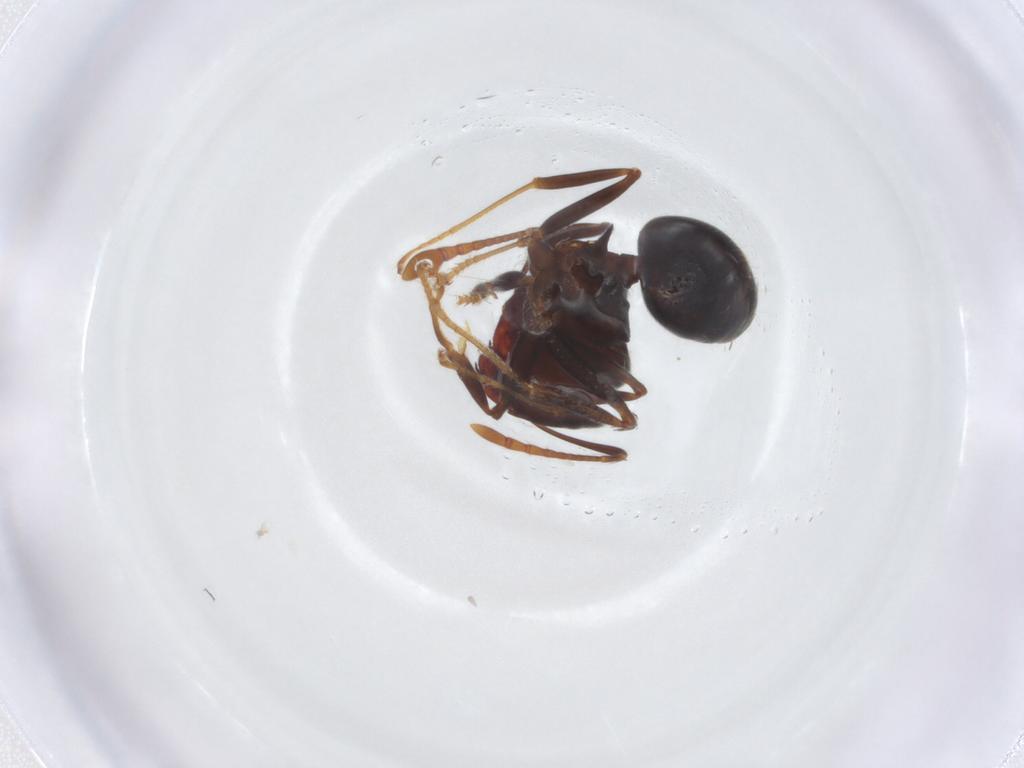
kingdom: Animalia
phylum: Arthropoda
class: Insecta
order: Hymenoptera
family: Formicidae
